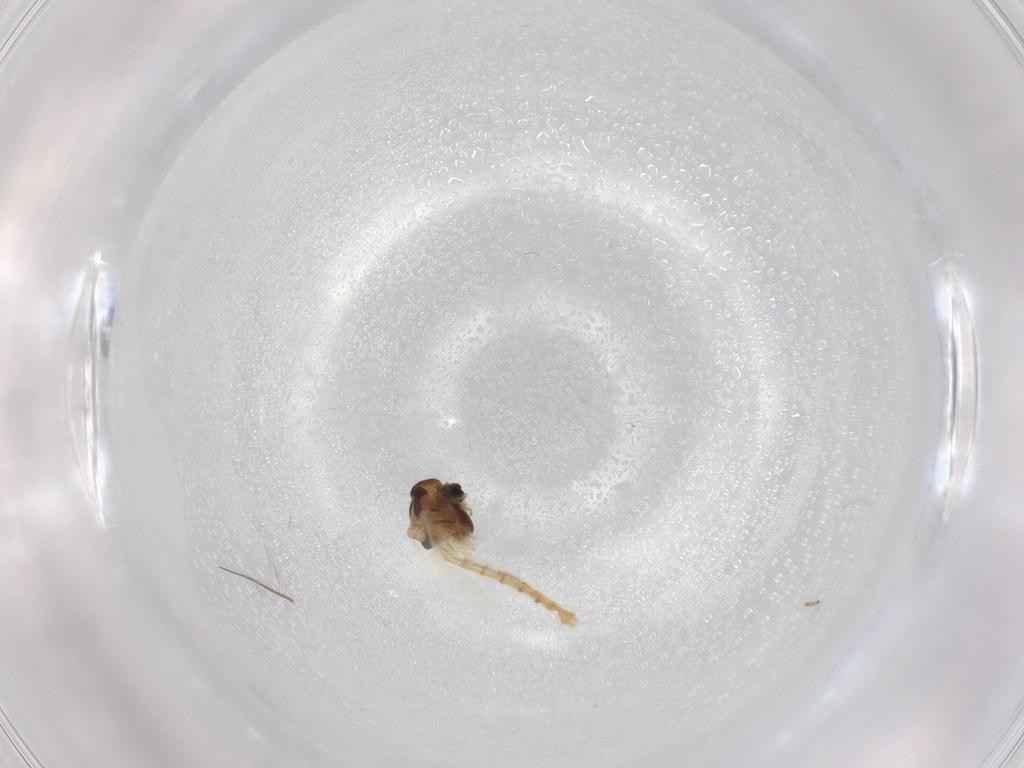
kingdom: Animalia
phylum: Arthropoda
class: Insecta
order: Diptera
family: Chironomidae
